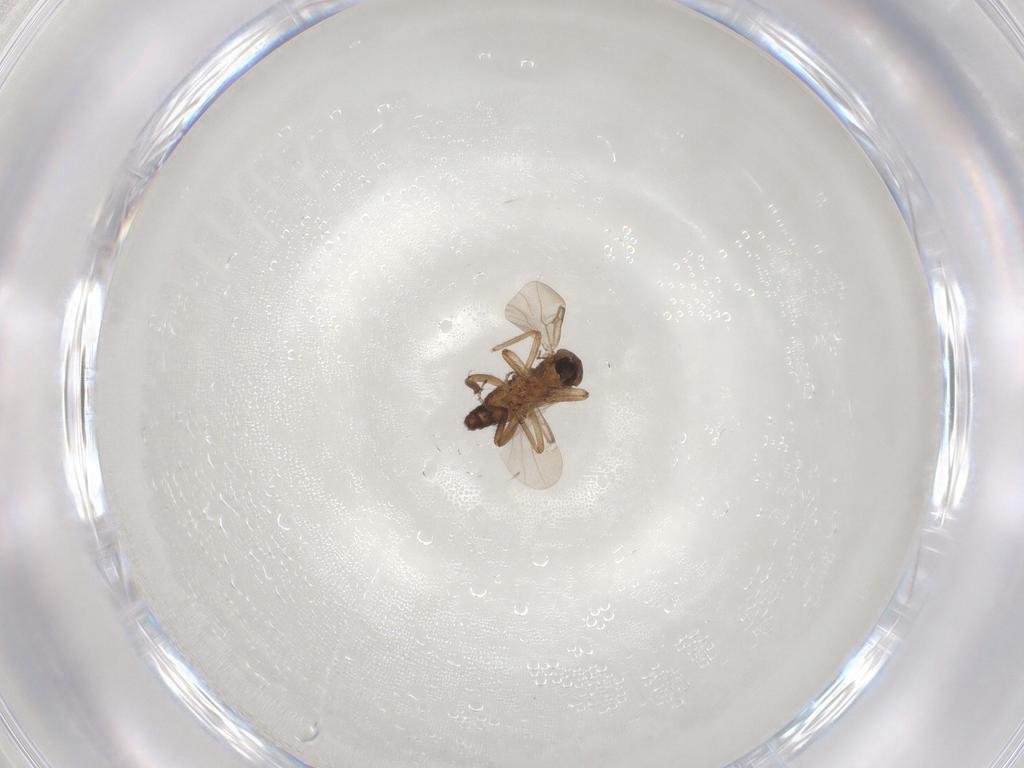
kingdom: Animalia
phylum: Arthropoda
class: Insecta
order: Diptera
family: Ceratopogonidae
